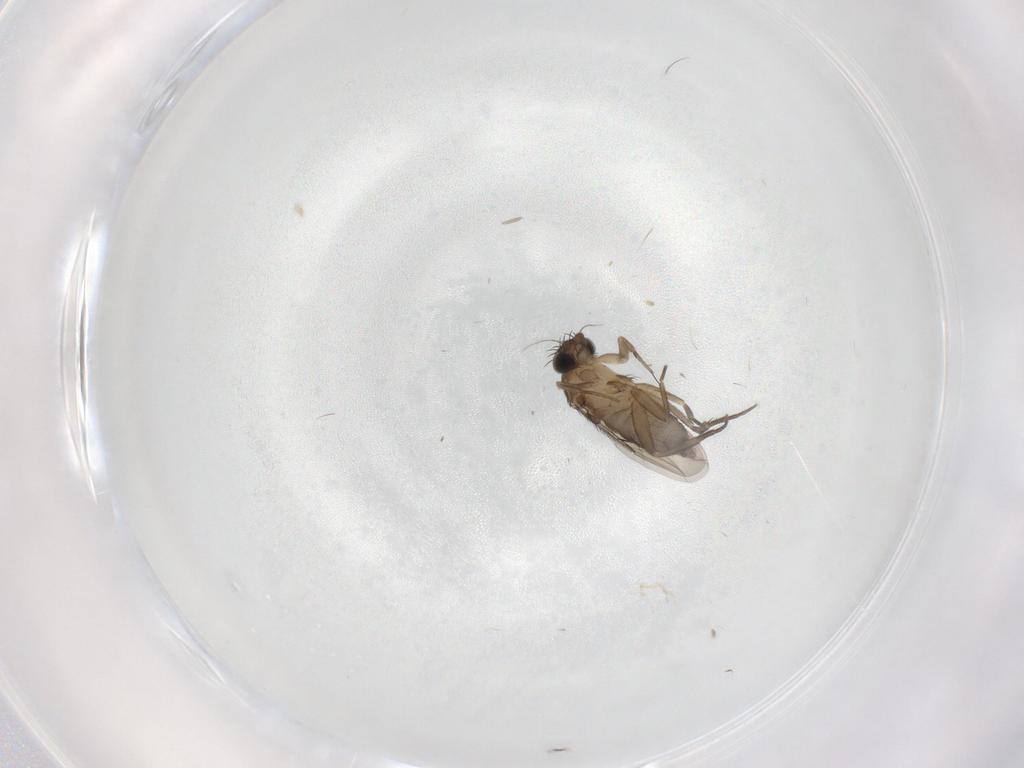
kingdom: Animalia
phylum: Arthropoda
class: Insecta
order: Diptera
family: Phoridae
